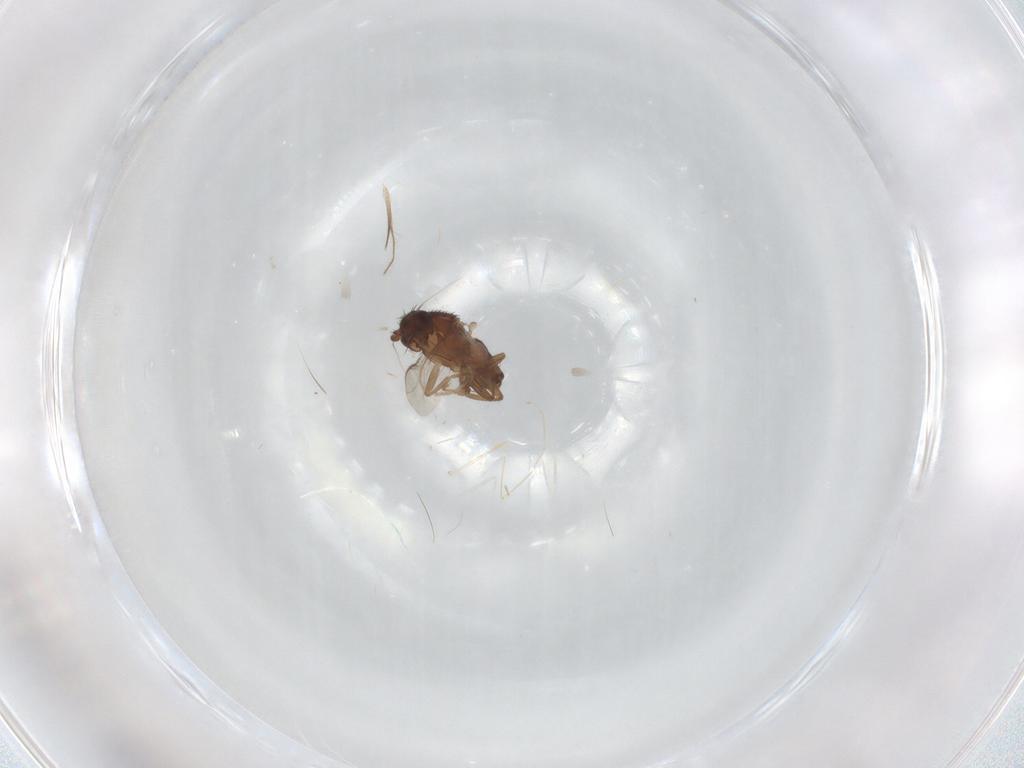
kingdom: Animalia
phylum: Arthropoda
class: Insecta
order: Diptera
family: Cecidomyiidae
